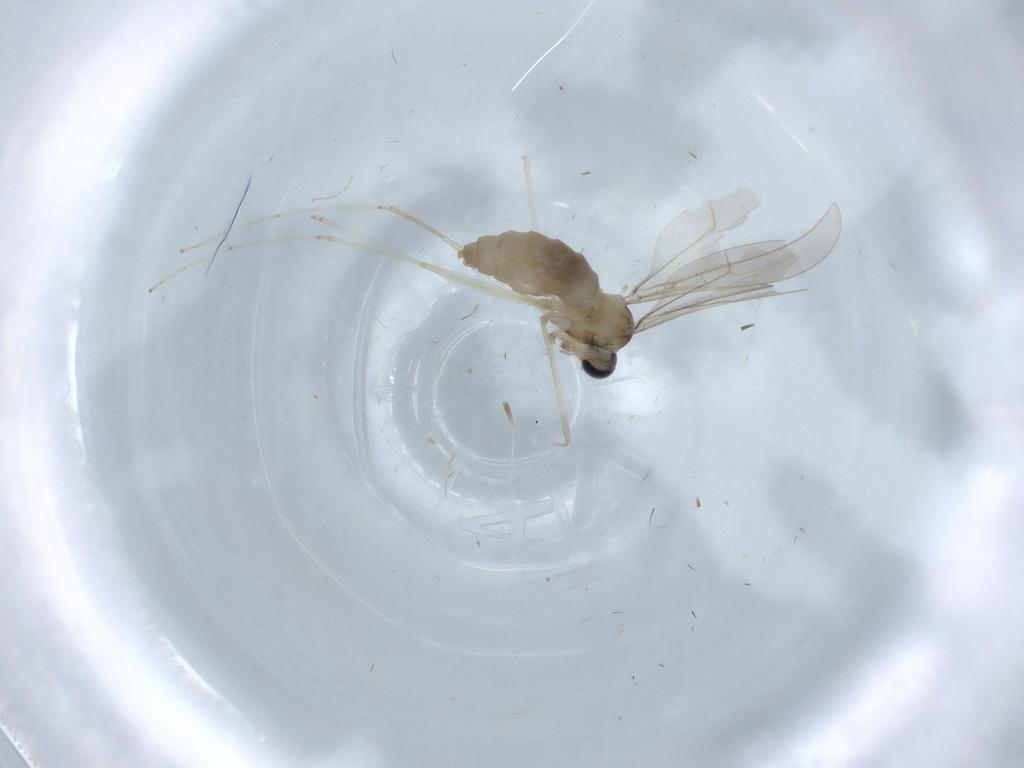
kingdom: Animalia
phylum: Arthropoda
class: Insecta
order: Diptera
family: Cecidomyiidae
